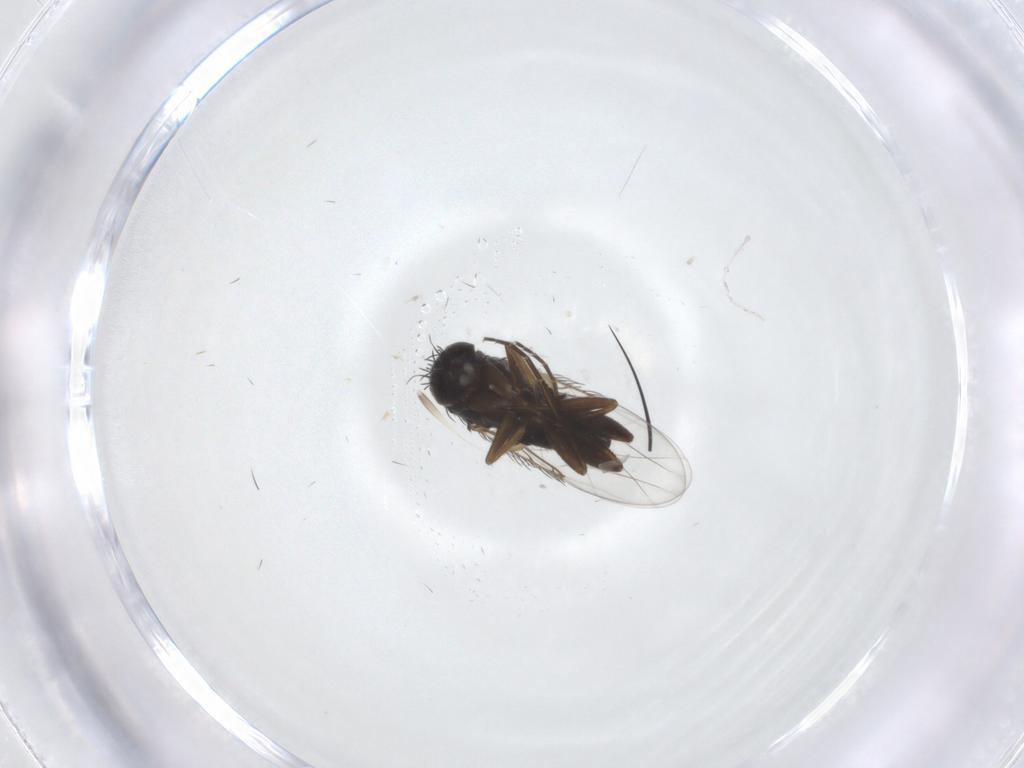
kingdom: Animalia
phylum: Arthropoda
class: Insecta
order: Diptera
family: Phoridae
